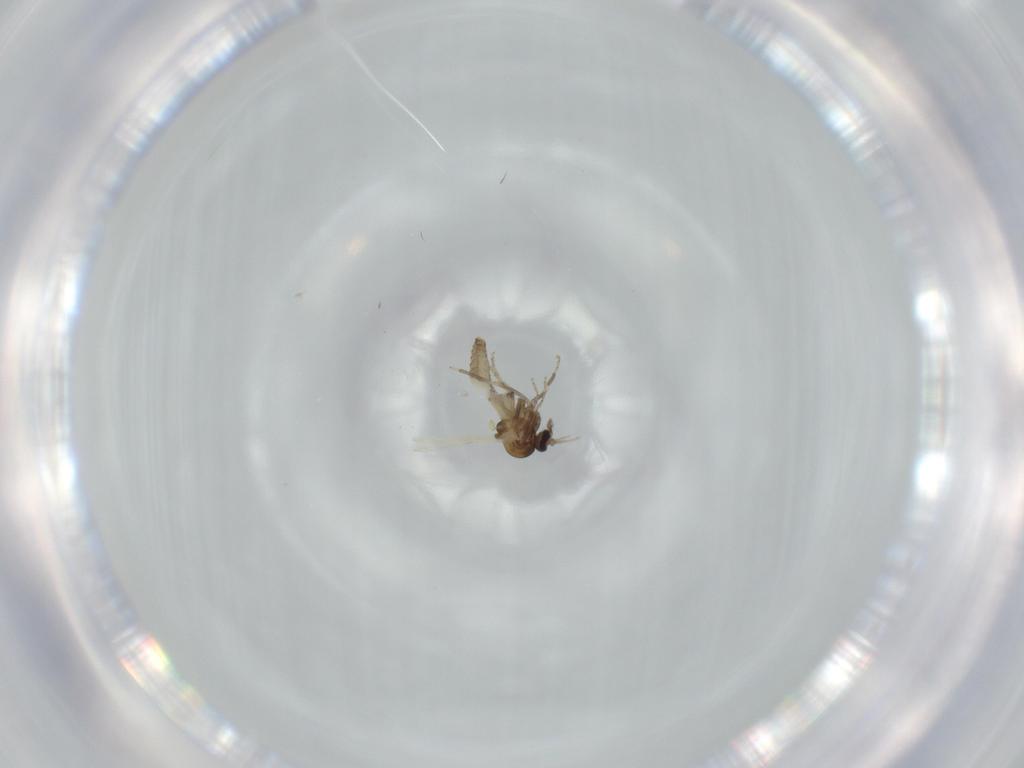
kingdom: Animalia
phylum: Arthropoda
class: Insecta
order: Diptera
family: Ceratopogonidae
